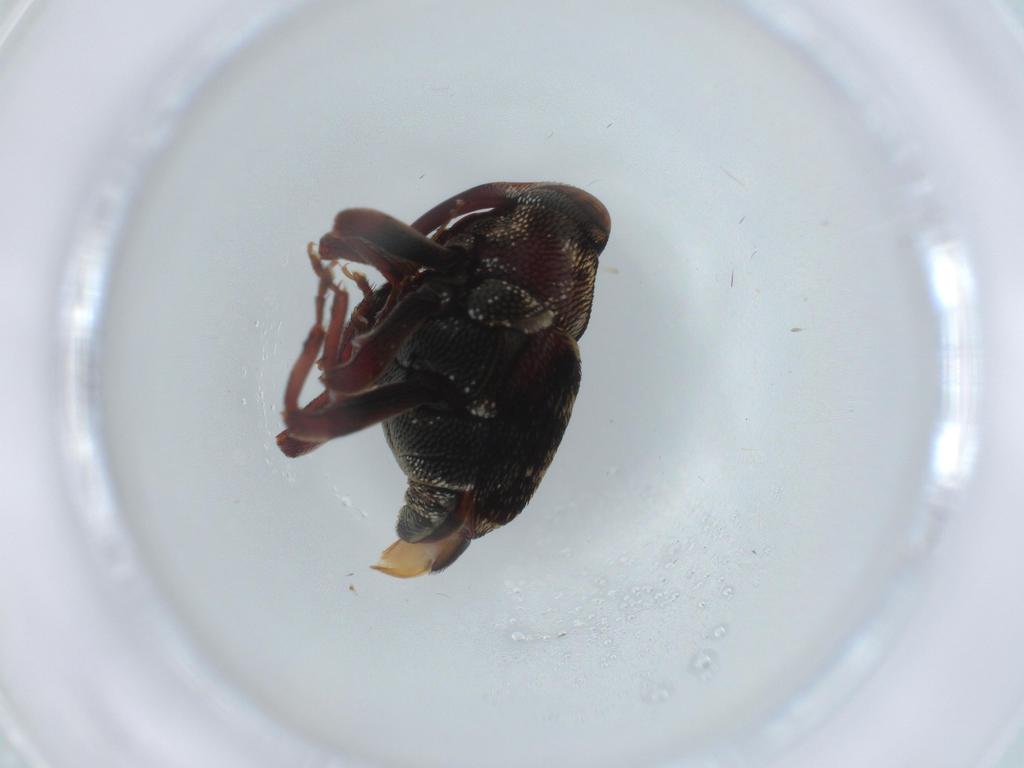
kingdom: Animalia
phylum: Arthropoda
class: Insecta
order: Coleoptera
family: Curculionidae
